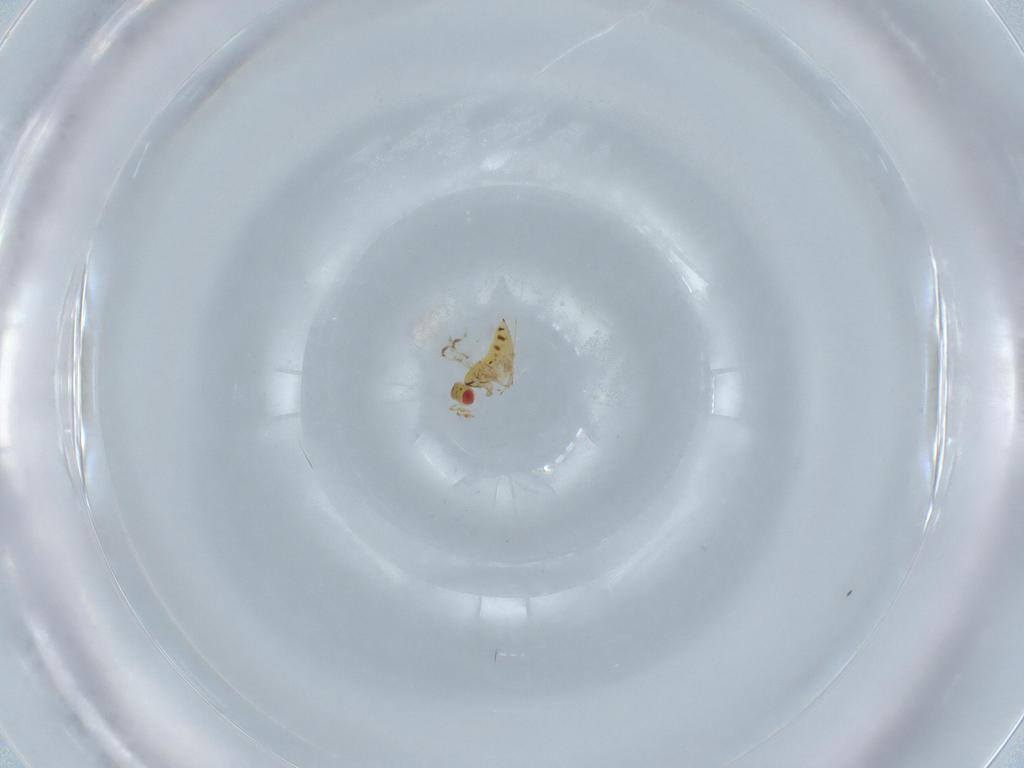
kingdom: Animalia
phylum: Arthropoda
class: Insecta
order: Hymenoptera
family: Trichogrammatidae
